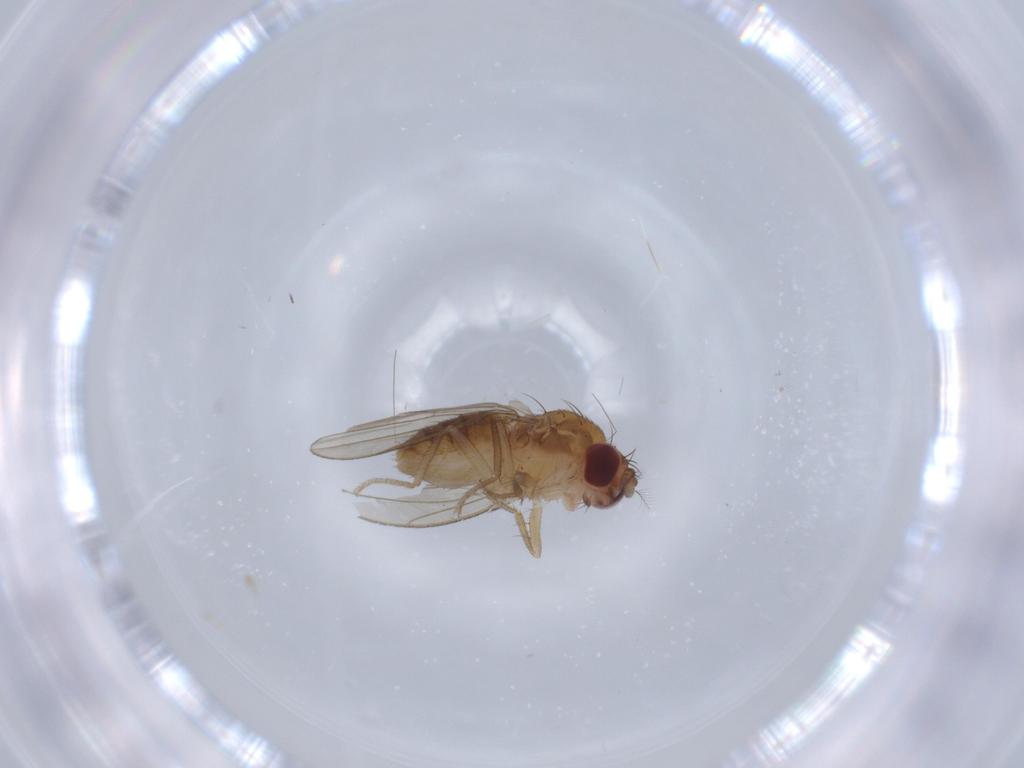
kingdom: Animalia
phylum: Arthropoda
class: Insecta
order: Diptera
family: Drosophilidae
